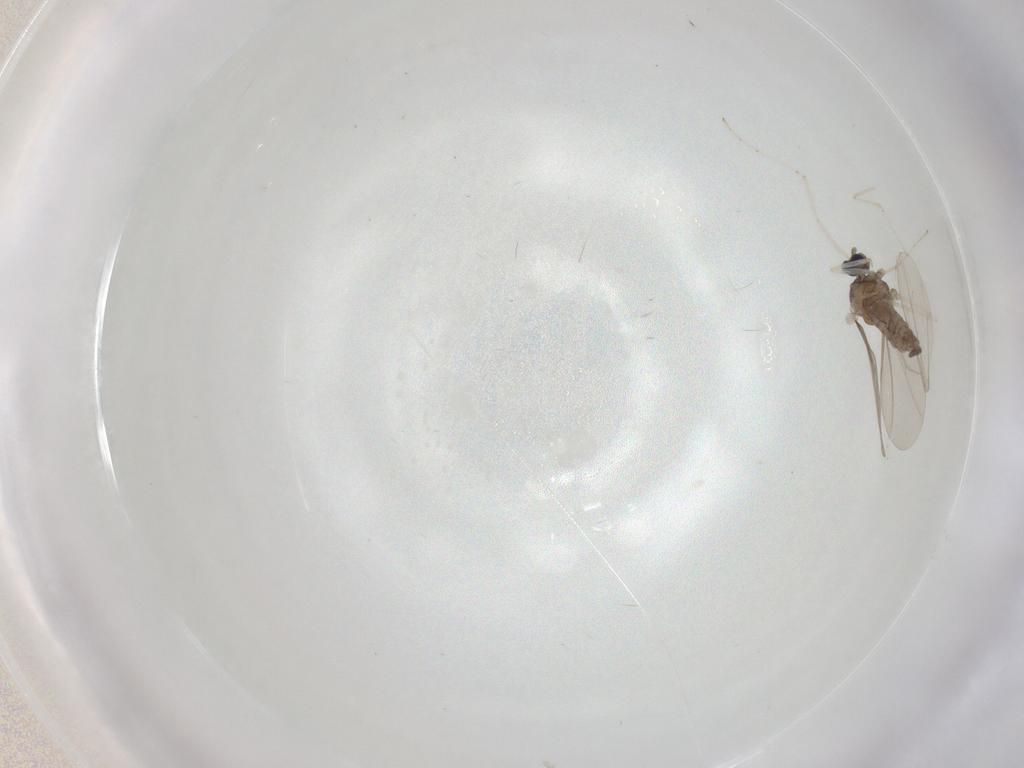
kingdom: Animalia
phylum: Arthropoda
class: Insecta
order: Diptera
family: Cecidomyiidae
